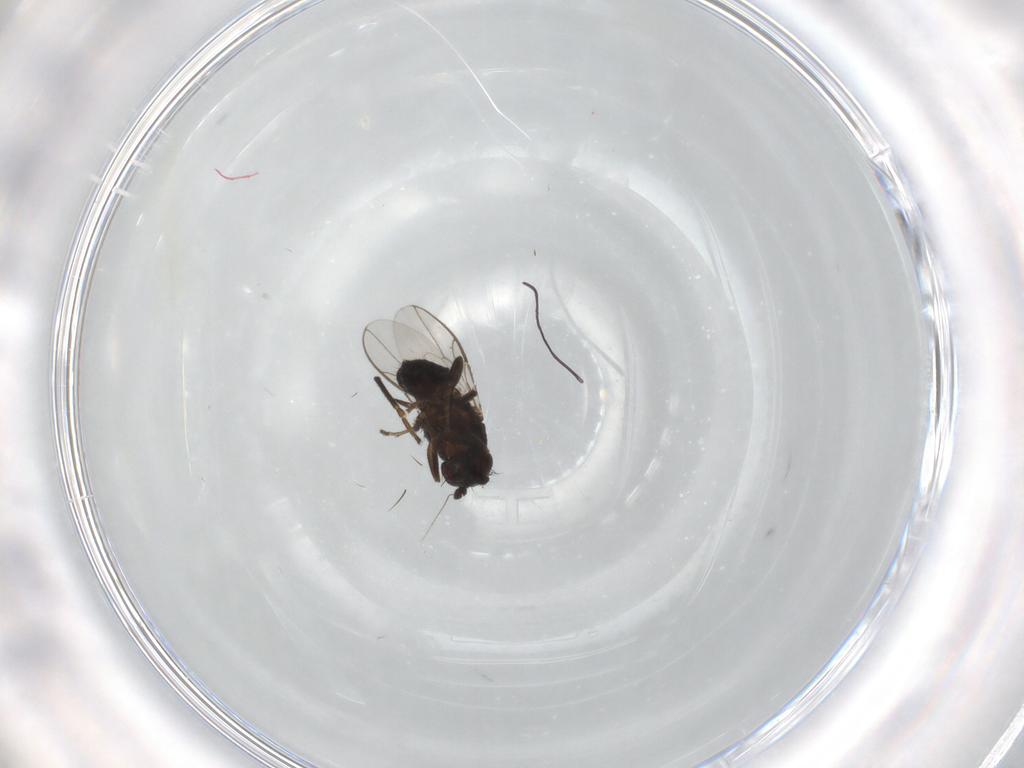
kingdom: Animalia
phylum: Arthropoda
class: Insecta
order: Diptera
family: Sphaeroceridae
